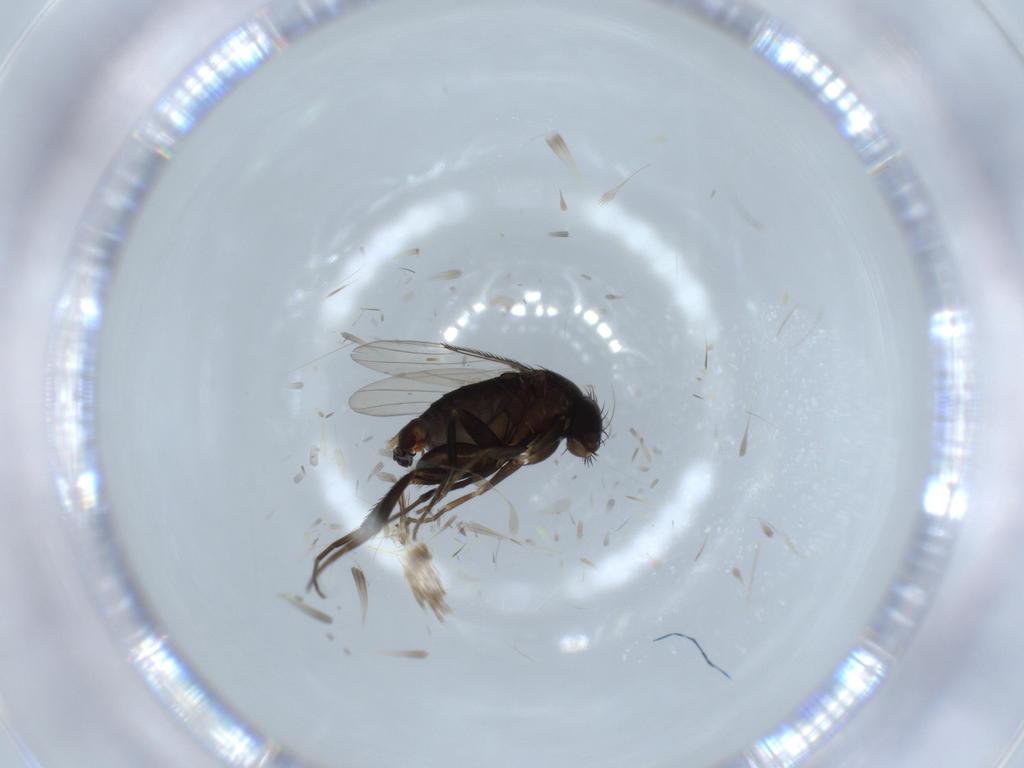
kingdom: Animalia
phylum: Arthropoda
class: Insecta
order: Diptera
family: Phoridae
